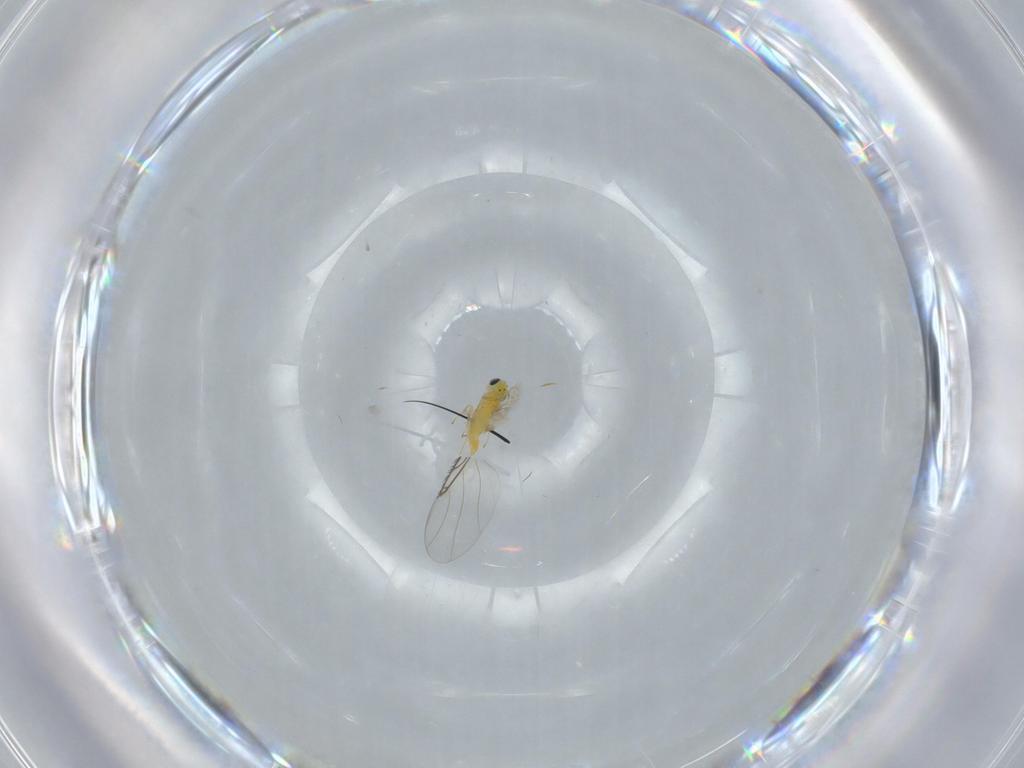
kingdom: Animalia
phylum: Arthropoda
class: Insecta
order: Hymenoptera
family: Trichogrammatidae
